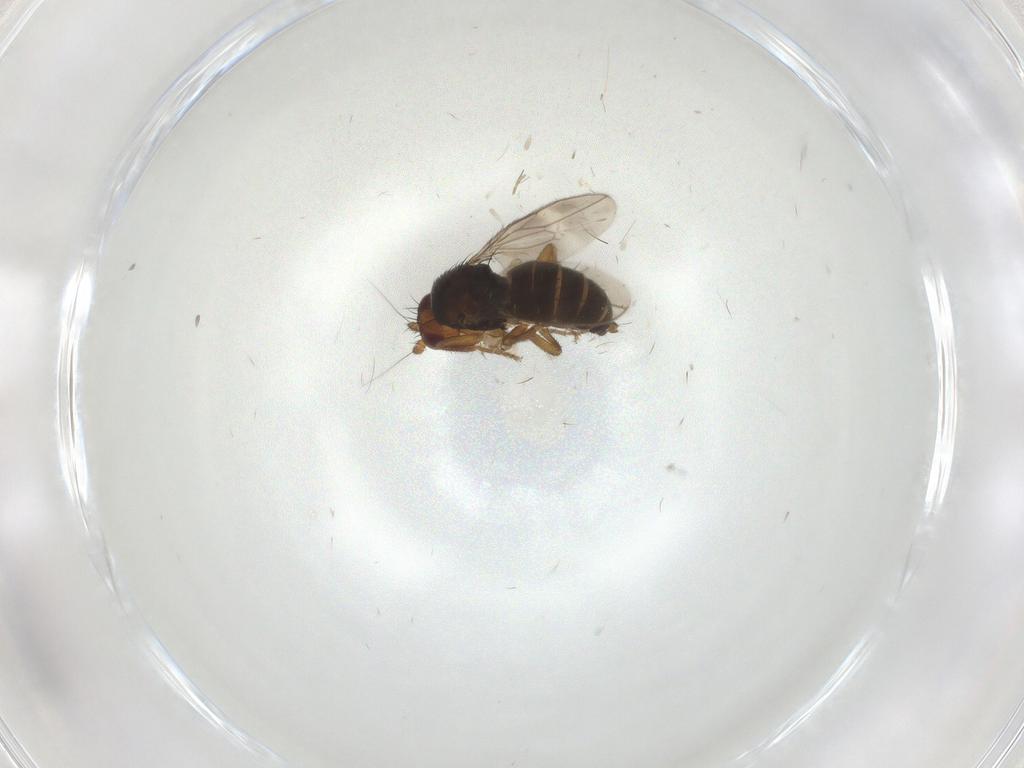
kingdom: Animalia
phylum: Arthropoda
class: Insecta
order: Diptera
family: Sphaeroceridae
